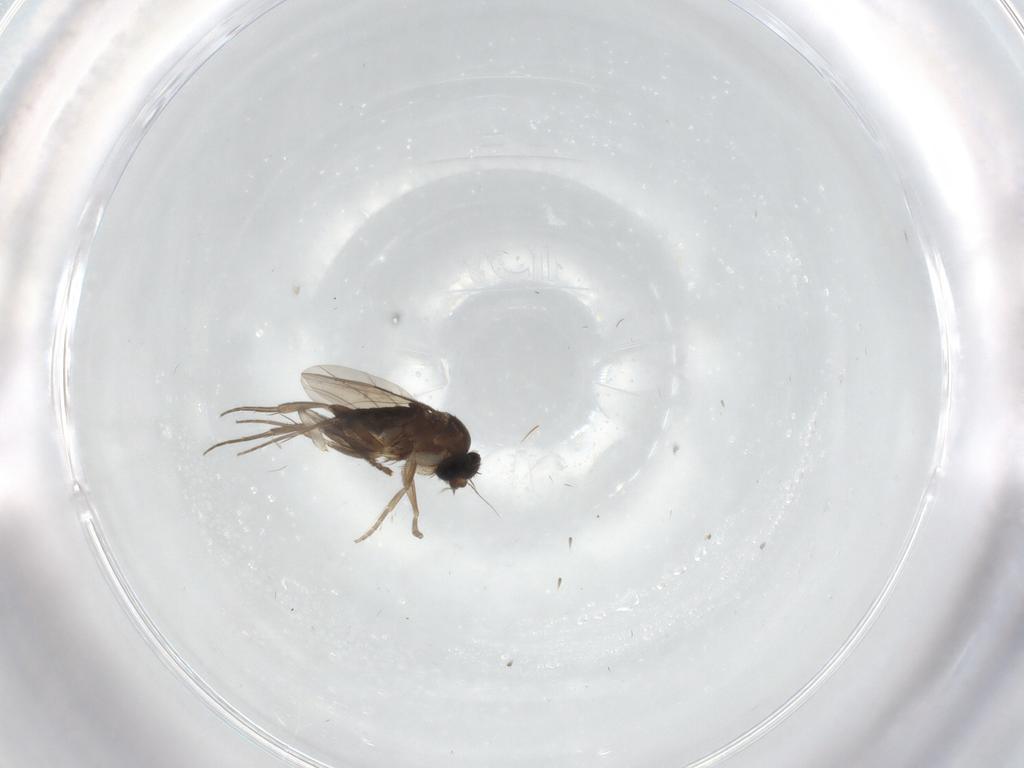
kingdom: Animalia
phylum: Arthropoda
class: Insecta
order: Diptera
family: Phoridae
